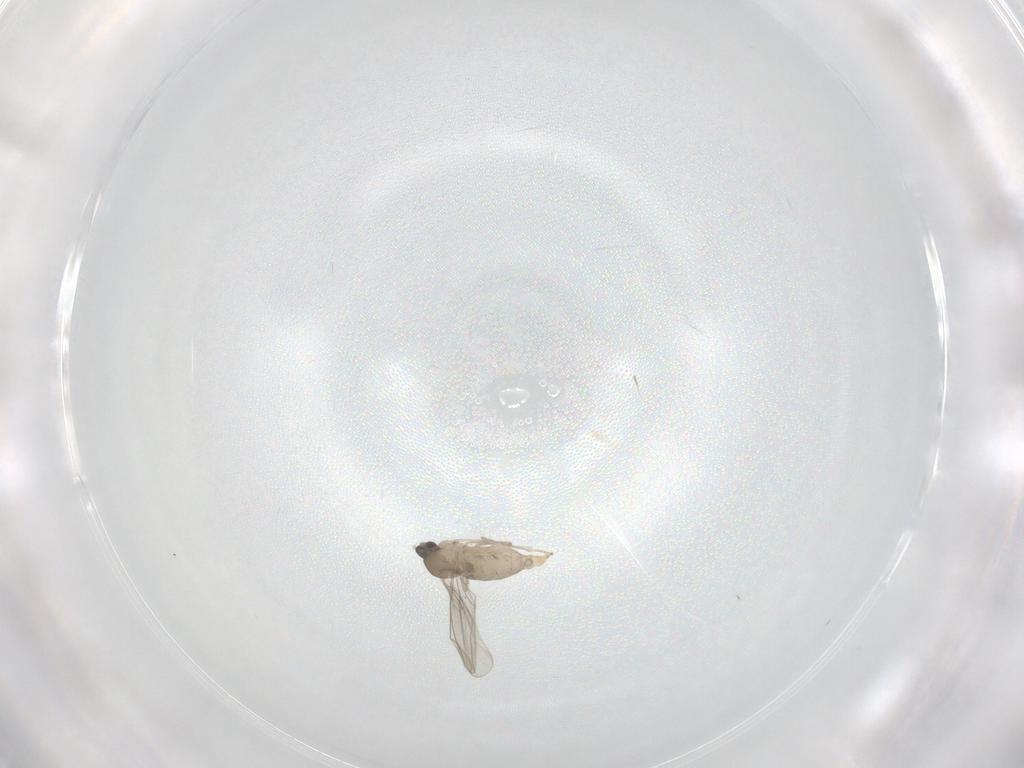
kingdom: Animalia
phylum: Arthropoda
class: Insecta
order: Diptera
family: Cecidomyiidae
